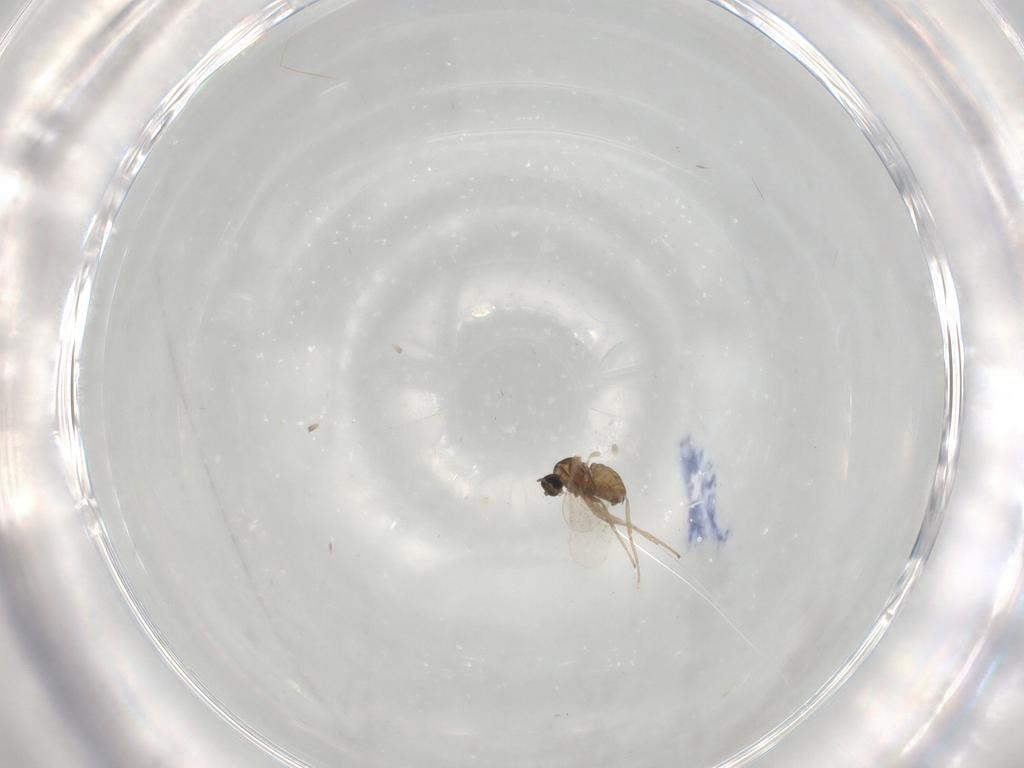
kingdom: Animalia
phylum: Arthropoda
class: Insecta
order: Diptera
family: Cecidomyiidae
